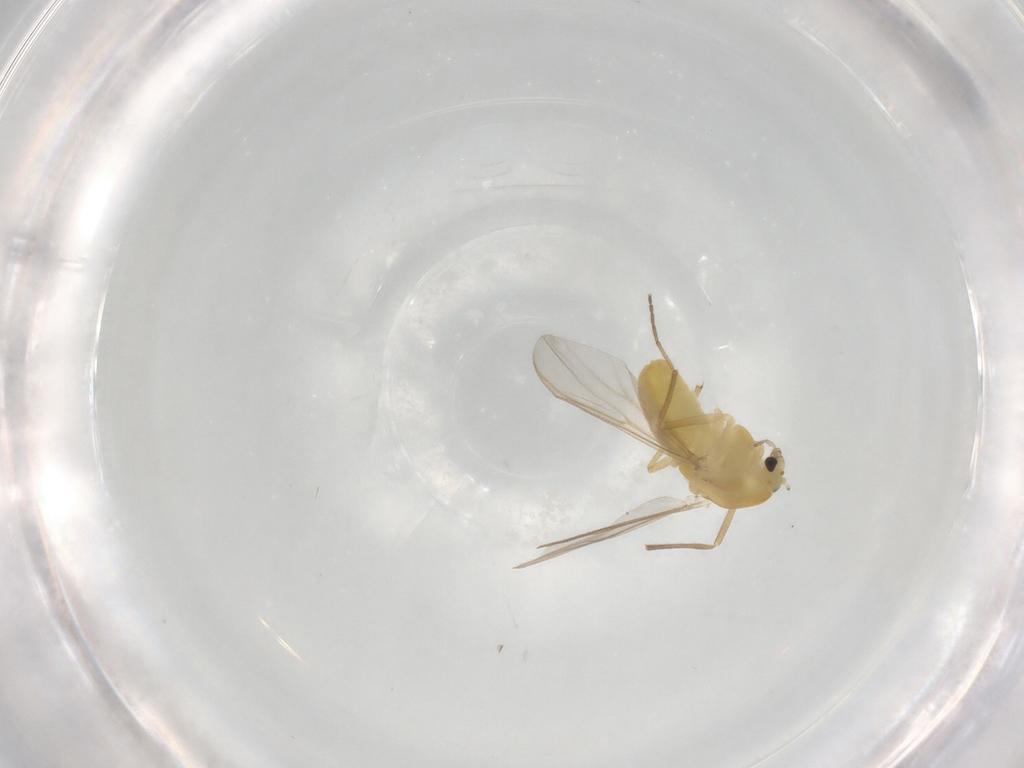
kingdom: Animalia
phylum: Arthropoda
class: Insecta
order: Diptera
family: Chironomidae
